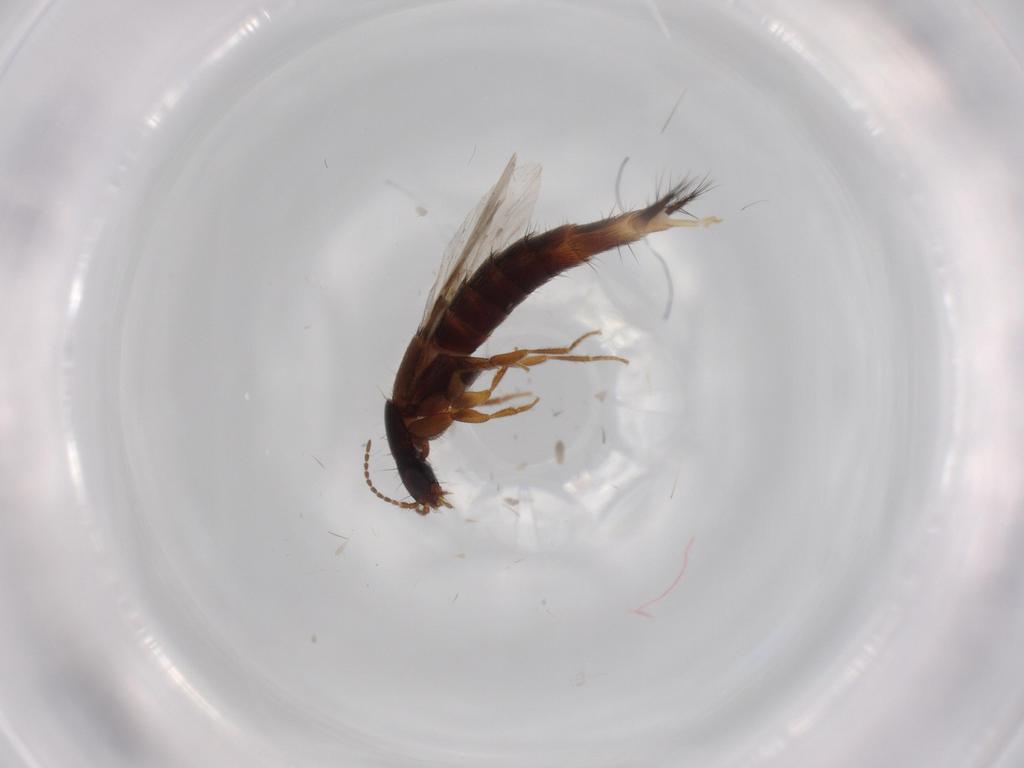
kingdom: Animalia
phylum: Arthropoda
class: Insecta
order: Coleoptera
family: Staphylinidae
